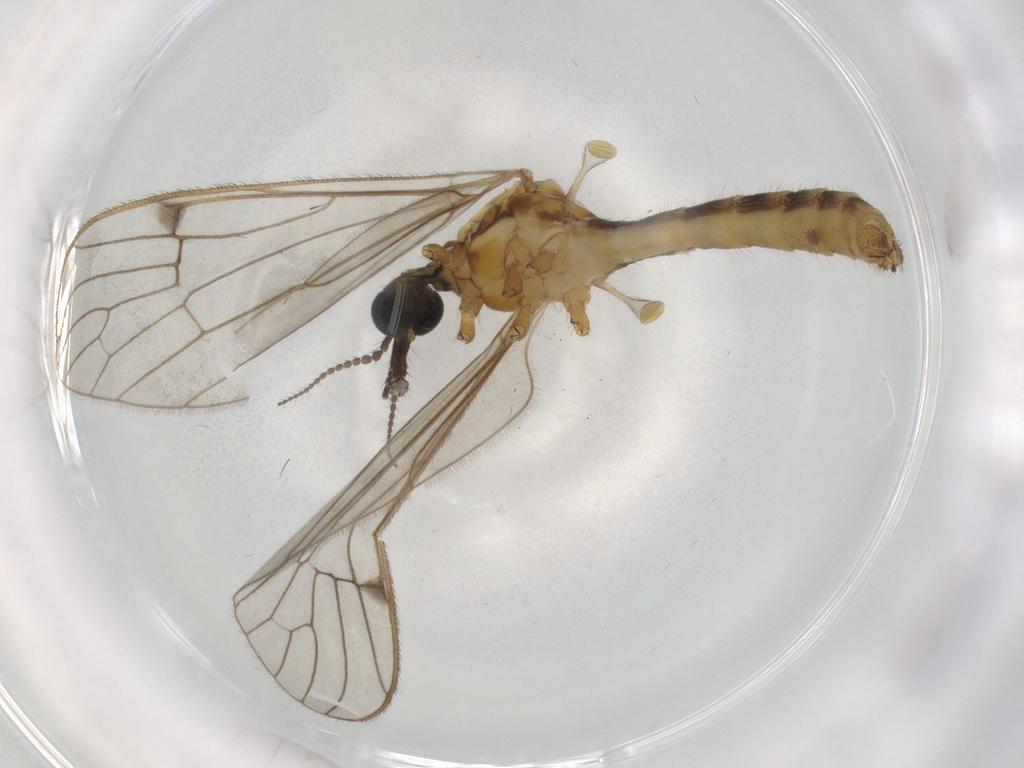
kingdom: Animalia
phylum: Arthropoda
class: Insecta
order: Diptera
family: Limoniidae
